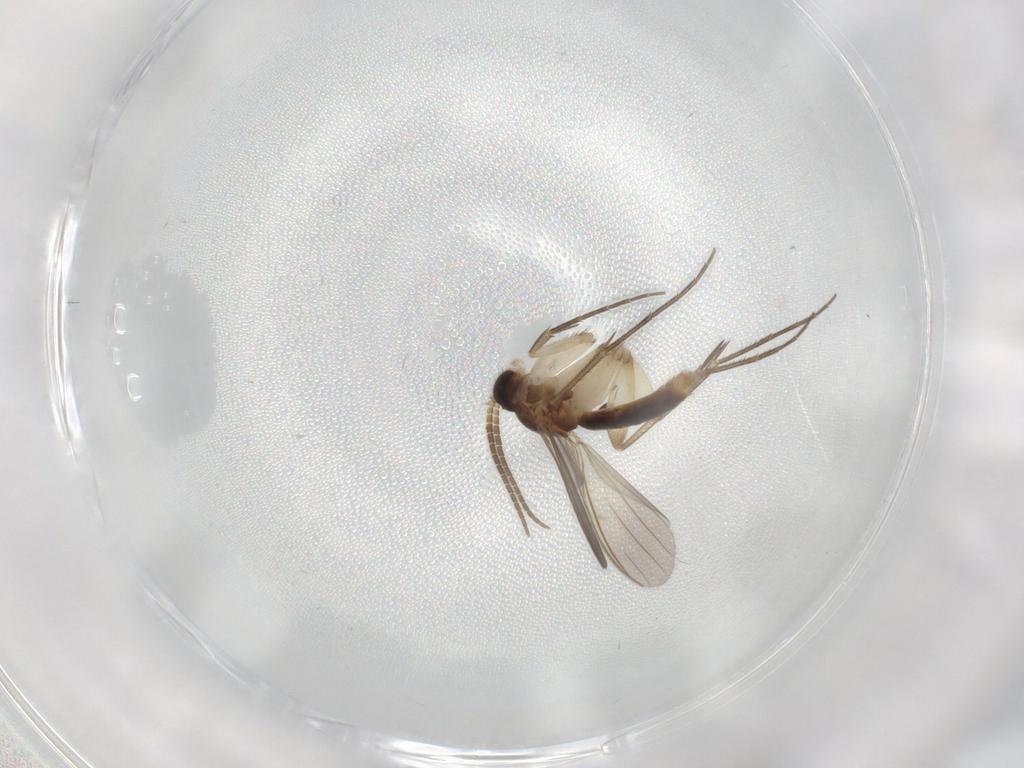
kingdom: Animalia
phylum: Arthropoda
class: Insecta
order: Diptera
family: Mycetophilidae
